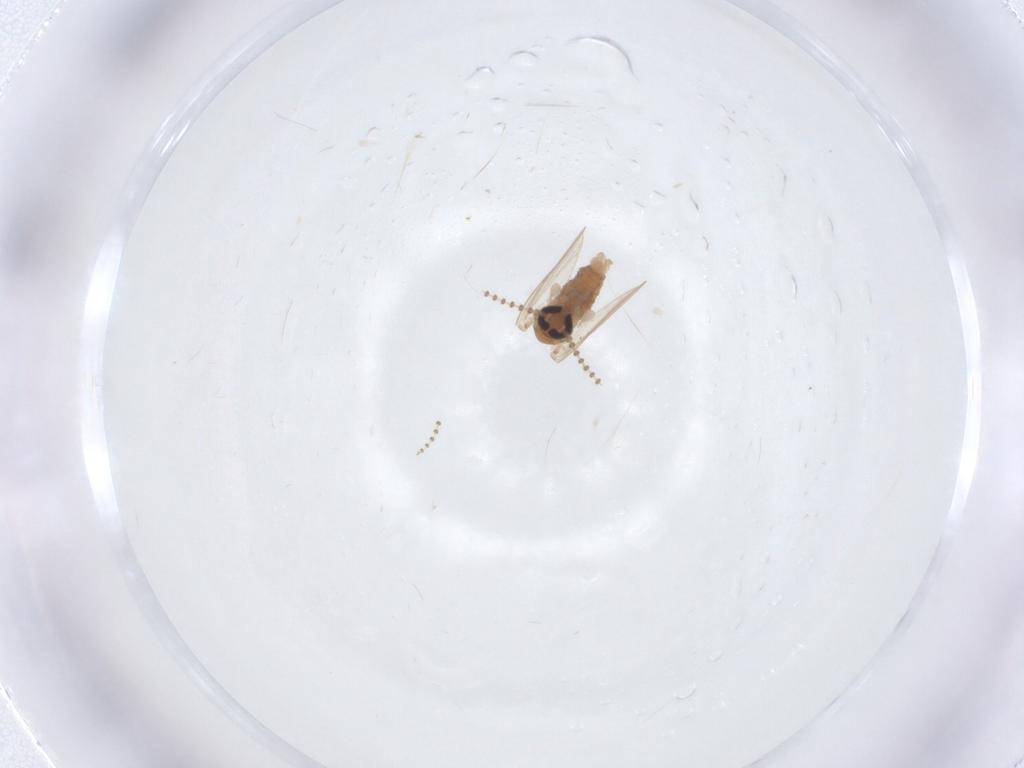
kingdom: Animalia
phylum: Arthropoda
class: Insecta
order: Diptera
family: Psychodidae
